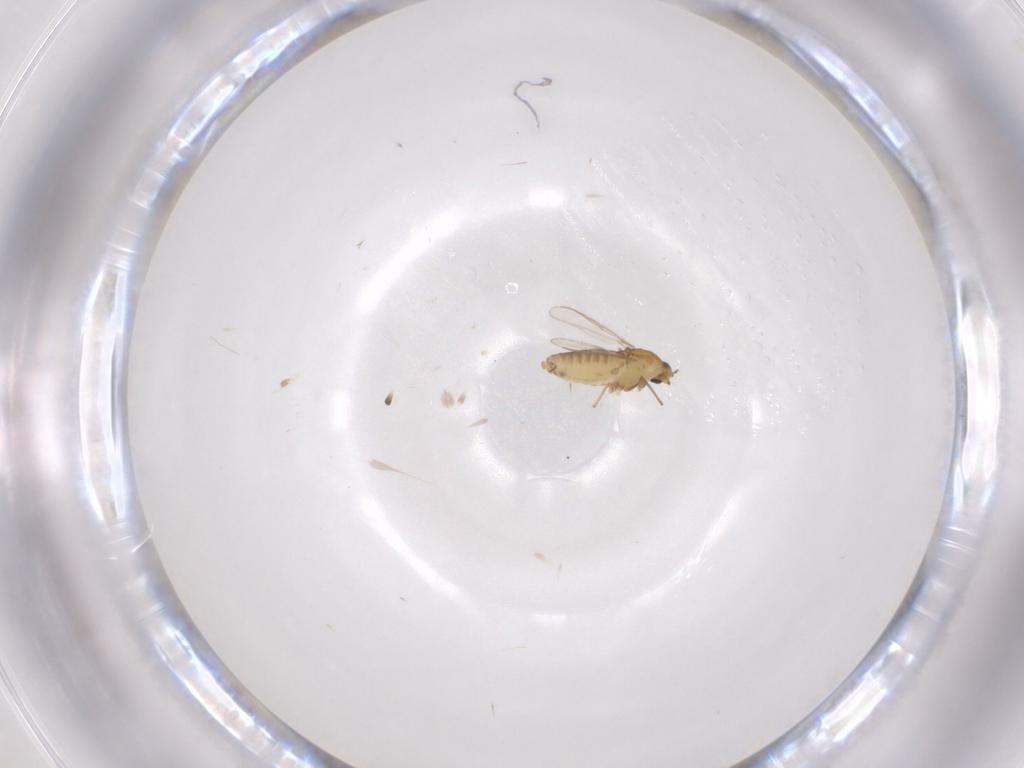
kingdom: Animalia
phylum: Arthropoda
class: Insecta
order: Diptera
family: Chironomidae
